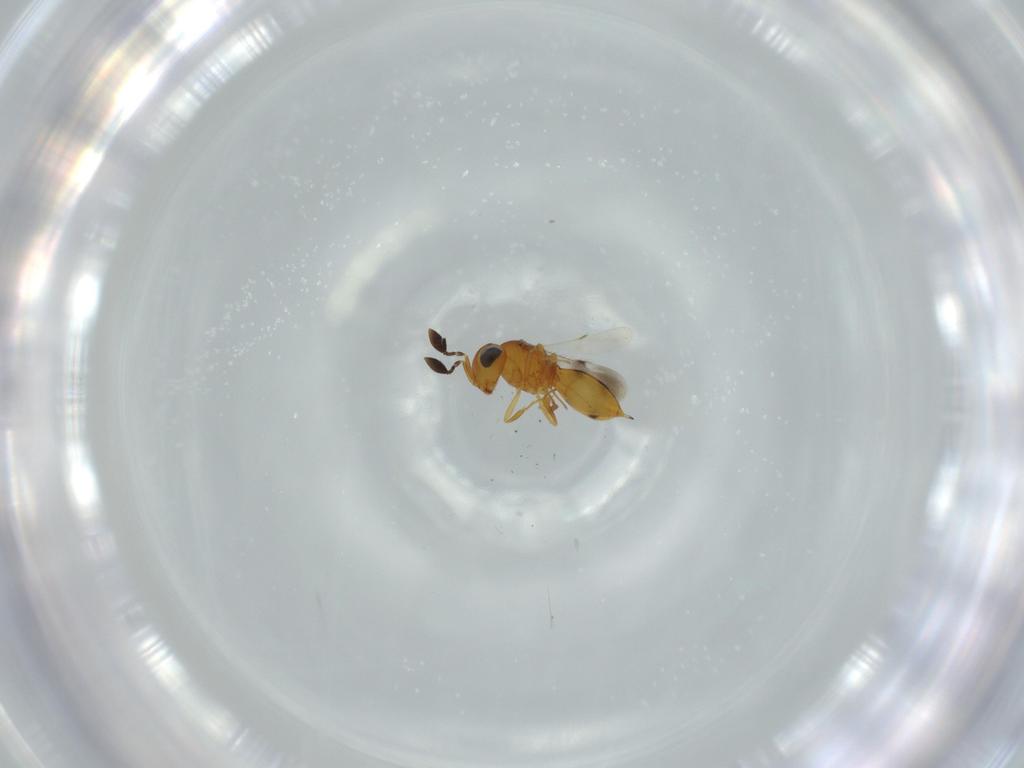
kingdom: Animalia
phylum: Arthropoda
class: Insecta
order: Hymenoptera
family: Scelionidae
